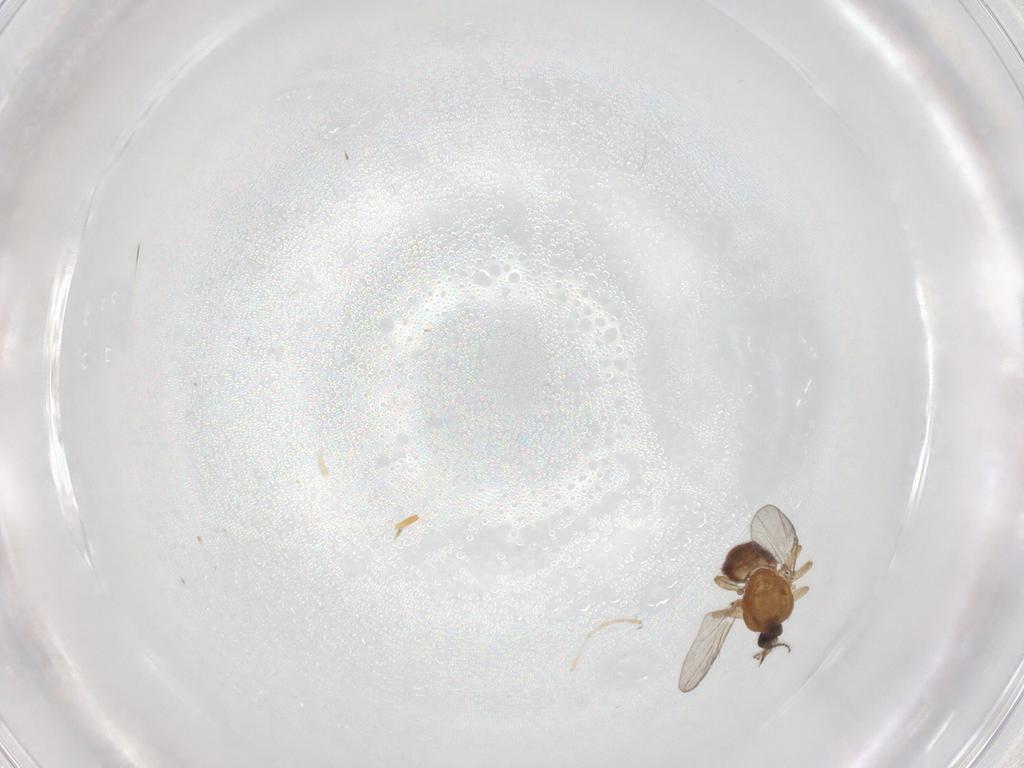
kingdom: Animalia
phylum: Arthropoda
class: Insecta
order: Diptera
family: Ceratopogonidae
